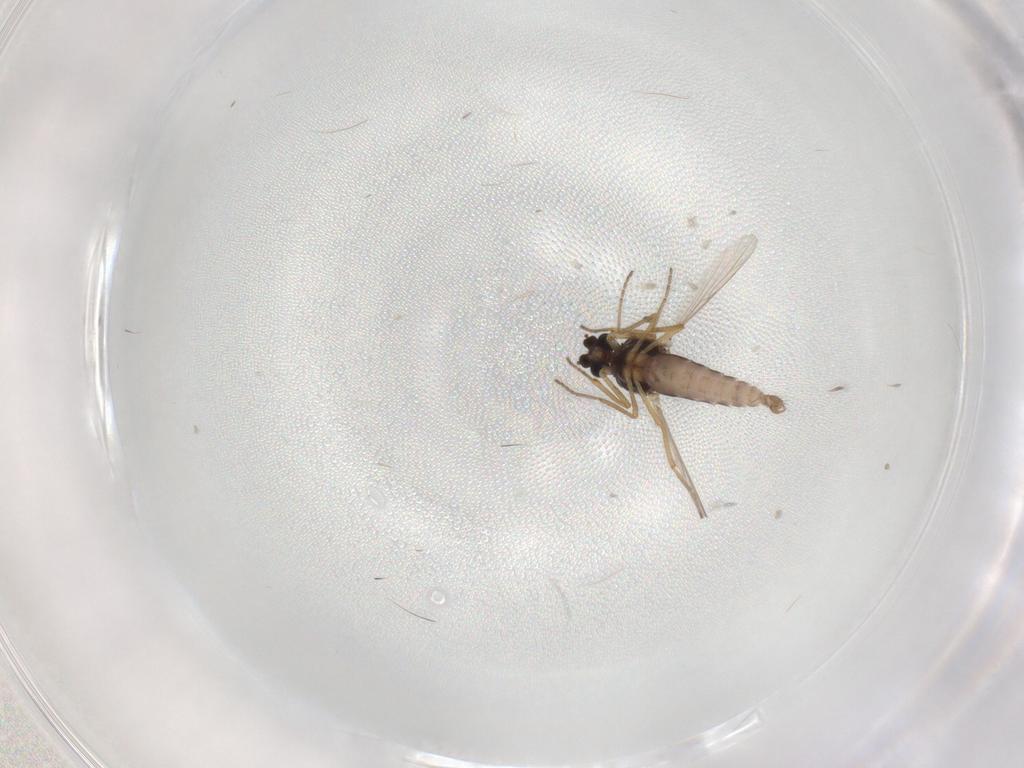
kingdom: Animalia
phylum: Arthropoda
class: Insecta
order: Diptera
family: Ceratopogonidae
